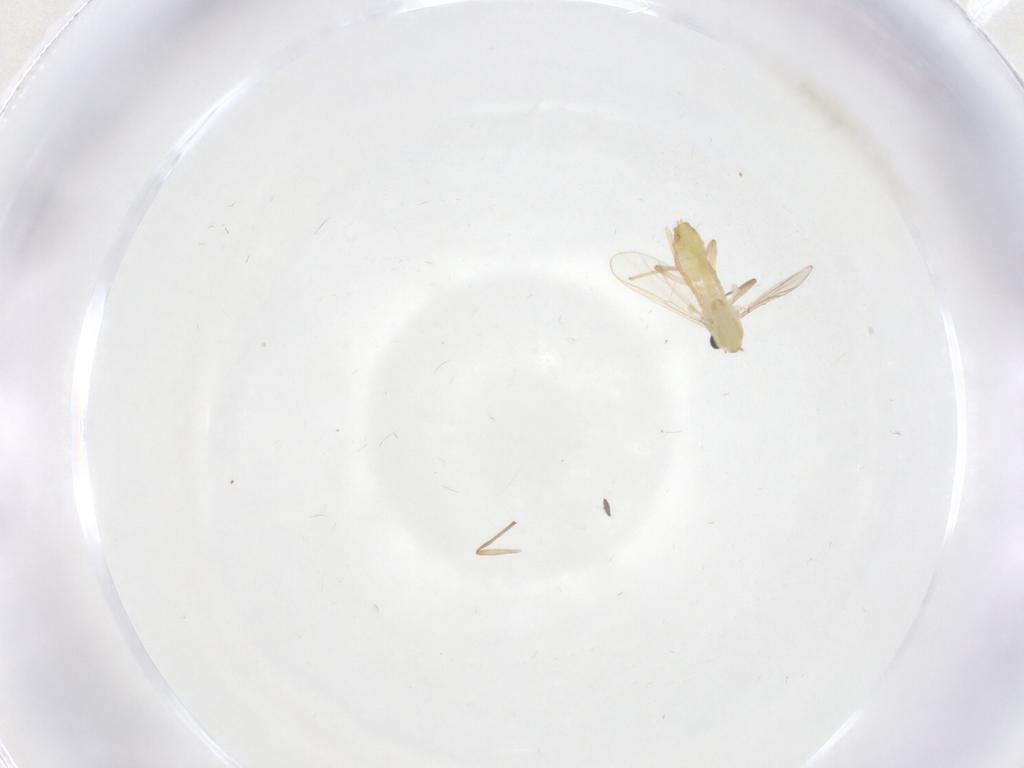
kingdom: Animalia
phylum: Arthropoda
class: Insecta
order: Diptera
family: Chironomidae
